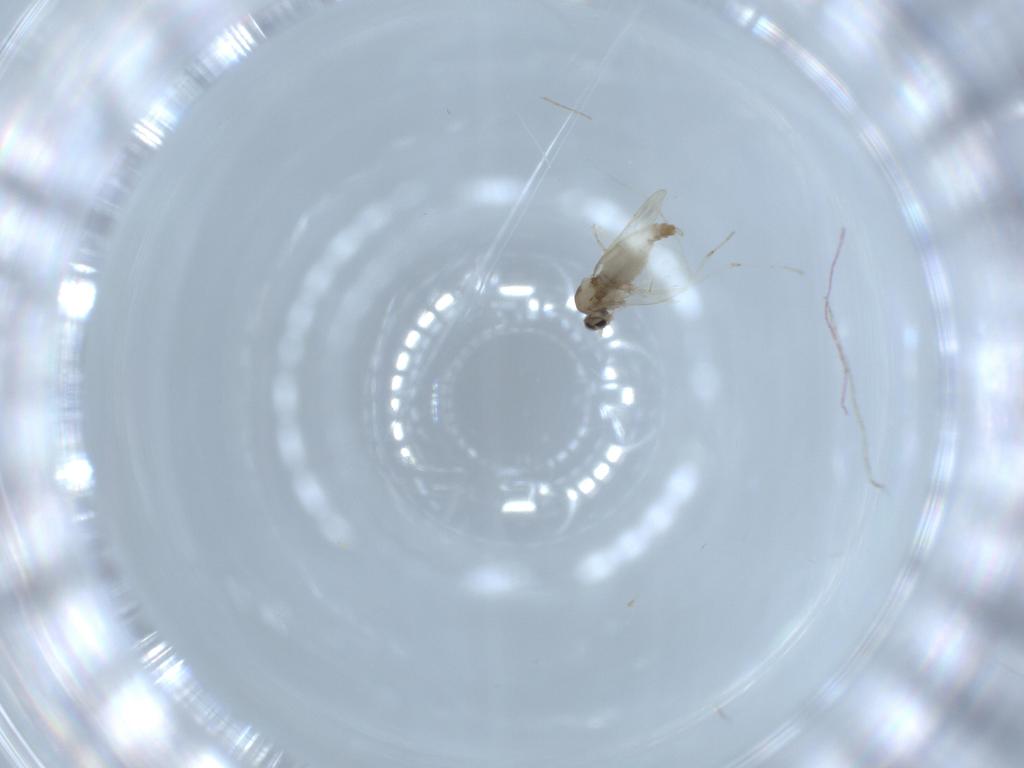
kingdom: Animalia
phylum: Arthropoda
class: Insecta
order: Diptera
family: Cecidomyiidae
